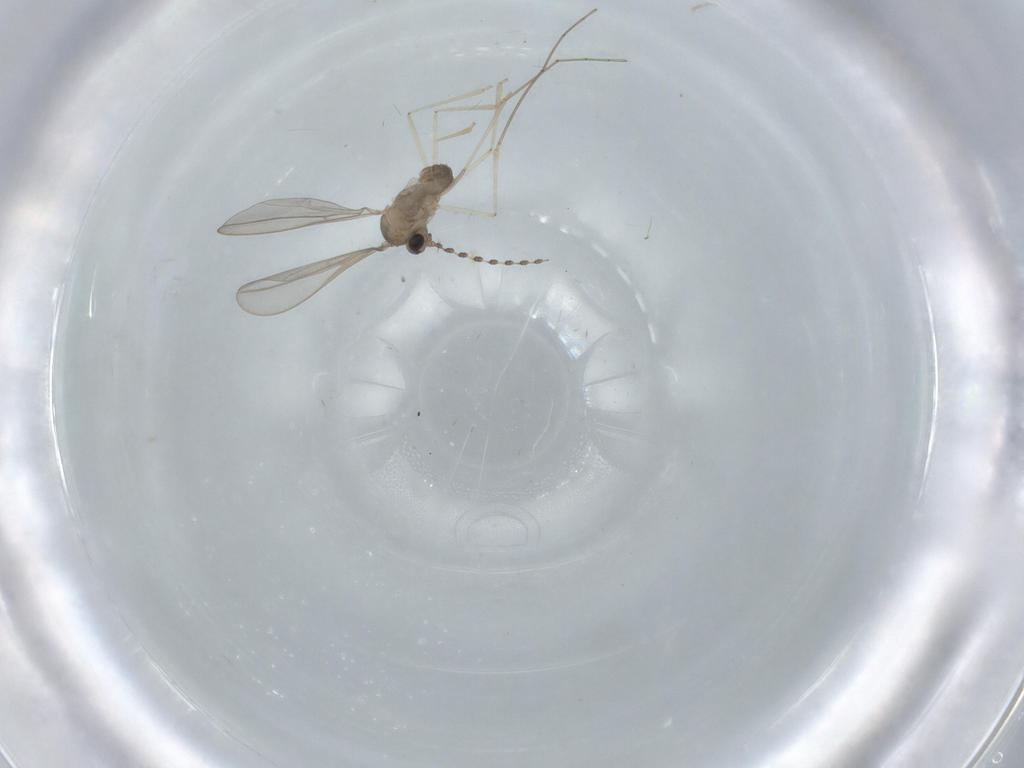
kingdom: Animalia
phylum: Arthropoda
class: Insecta
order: Diptera
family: Cecidomyiidae
